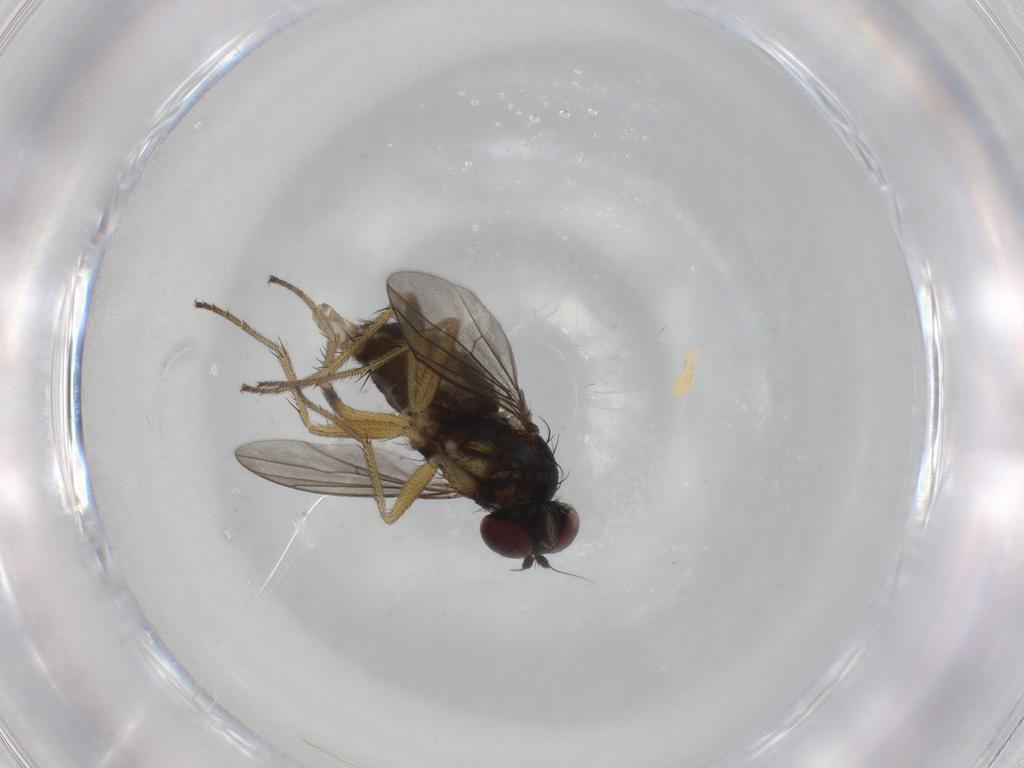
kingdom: Animalia
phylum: Arthropoda
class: Insecta
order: Diptera
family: Dolichopodidae
